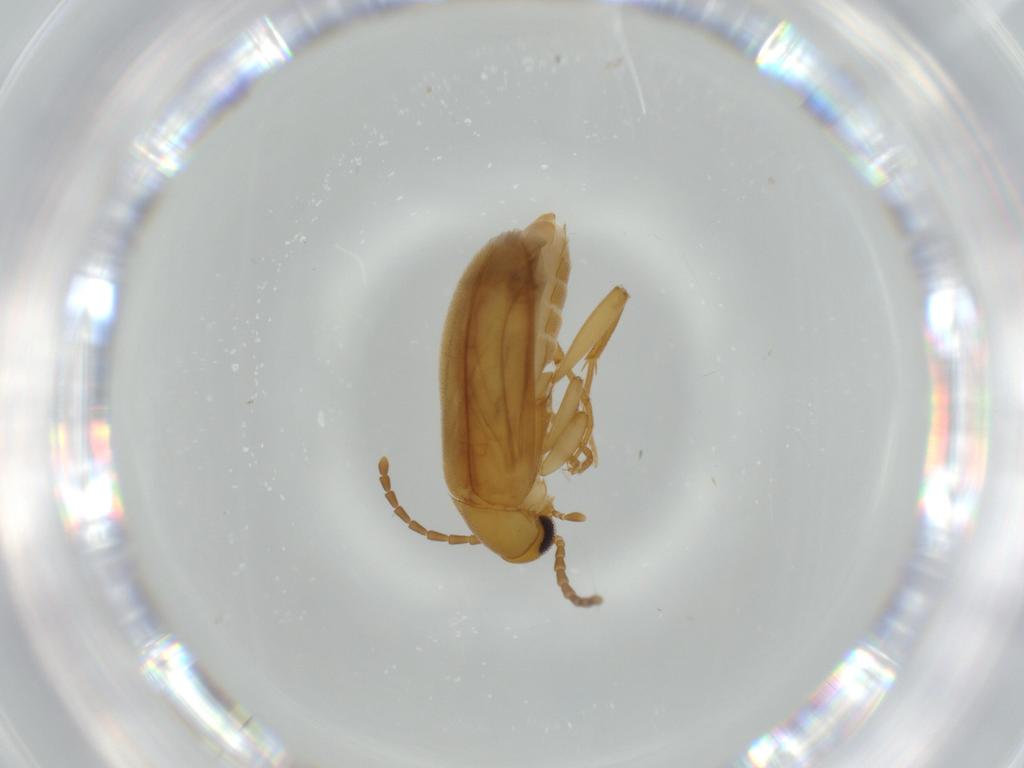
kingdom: Animalia
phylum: Arthropoda
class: Insecta
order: Coleoptera
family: Scraptiidae
